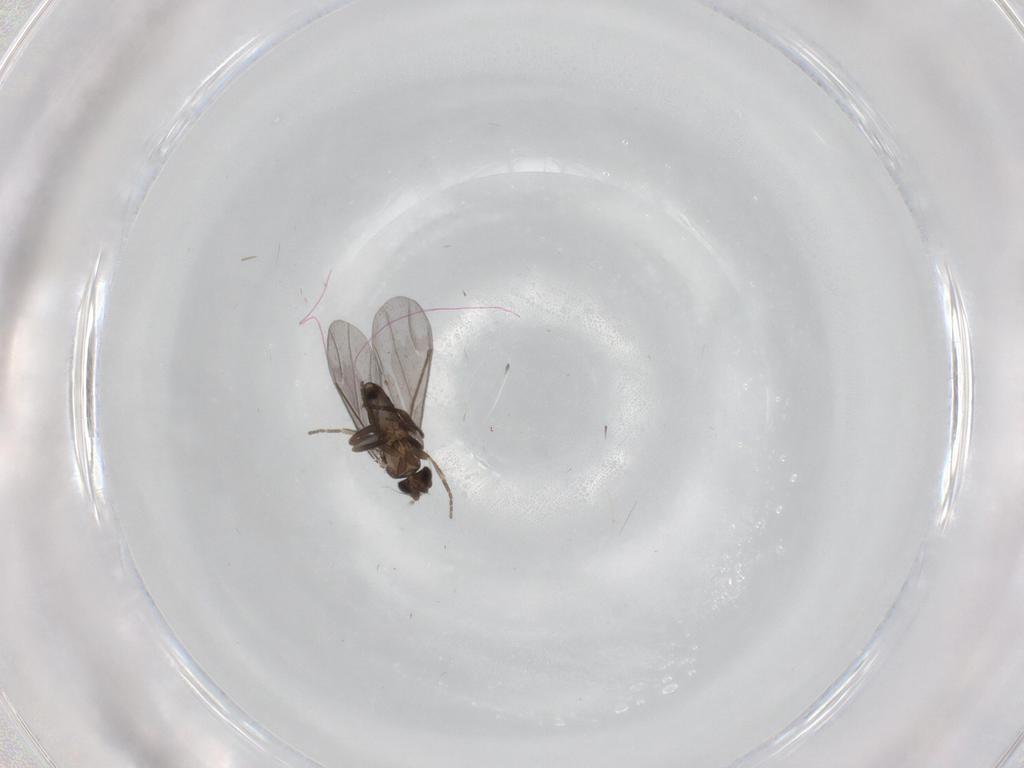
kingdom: Animalia
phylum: Arthropoda
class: Insecta
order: Diptera
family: Phoridae
